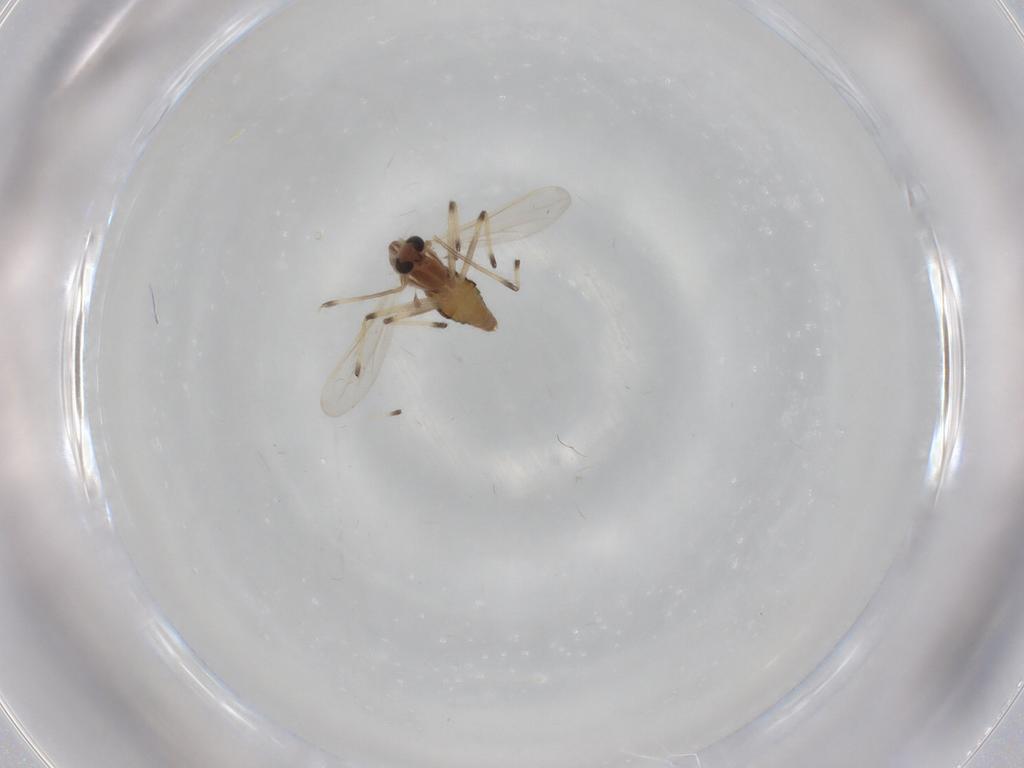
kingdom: Animalia
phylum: Arthropoda
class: Insecta
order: Diptera
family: Chironomidae
